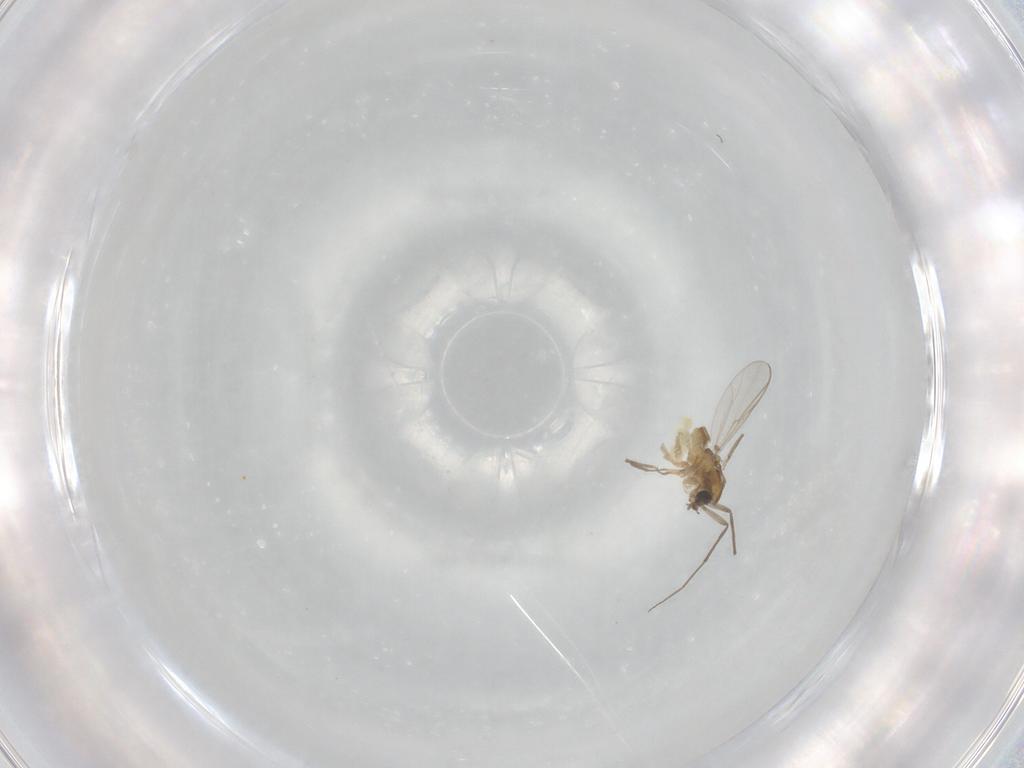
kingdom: Animalia
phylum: Arthropoda
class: Insecta
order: Diptera
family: Chironomidae
